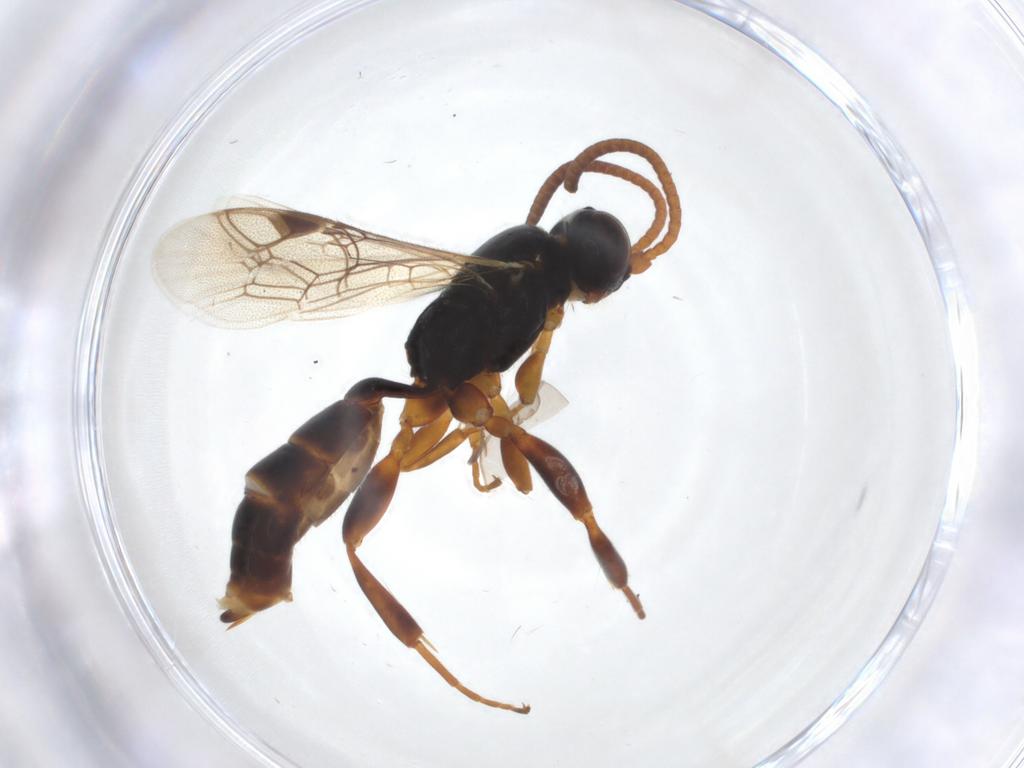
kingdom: Animalia
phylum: Arthropoda
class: Insecta
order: Hymenoptera
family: Ichneumonidae
